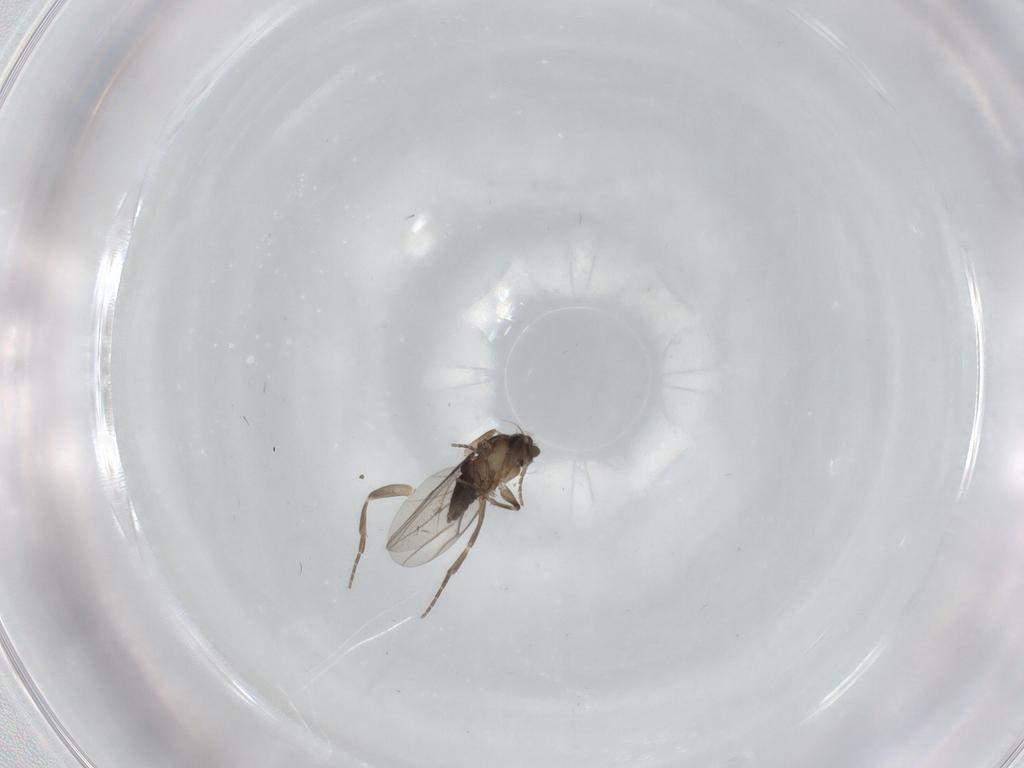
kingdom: Animalia
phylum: Arthropoda
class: Insecta
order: Diptera
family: Phoridae
